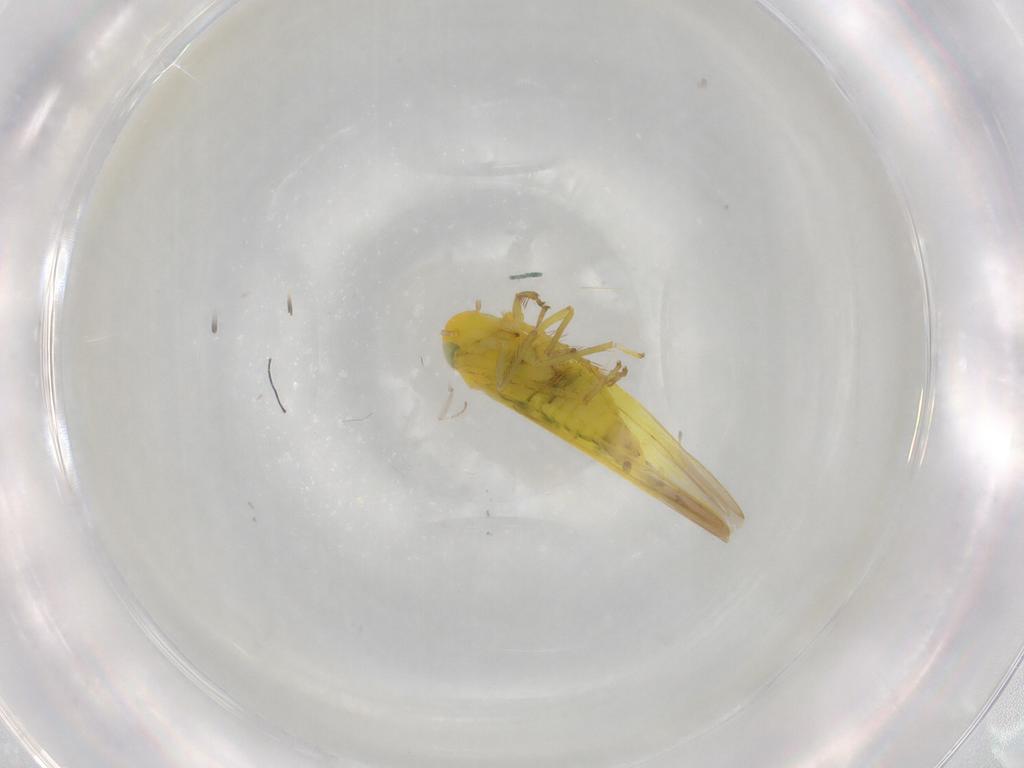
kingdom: Animalia
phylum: Arthropoda
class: Insecta
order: Hemiptera
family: Cicadellidae
